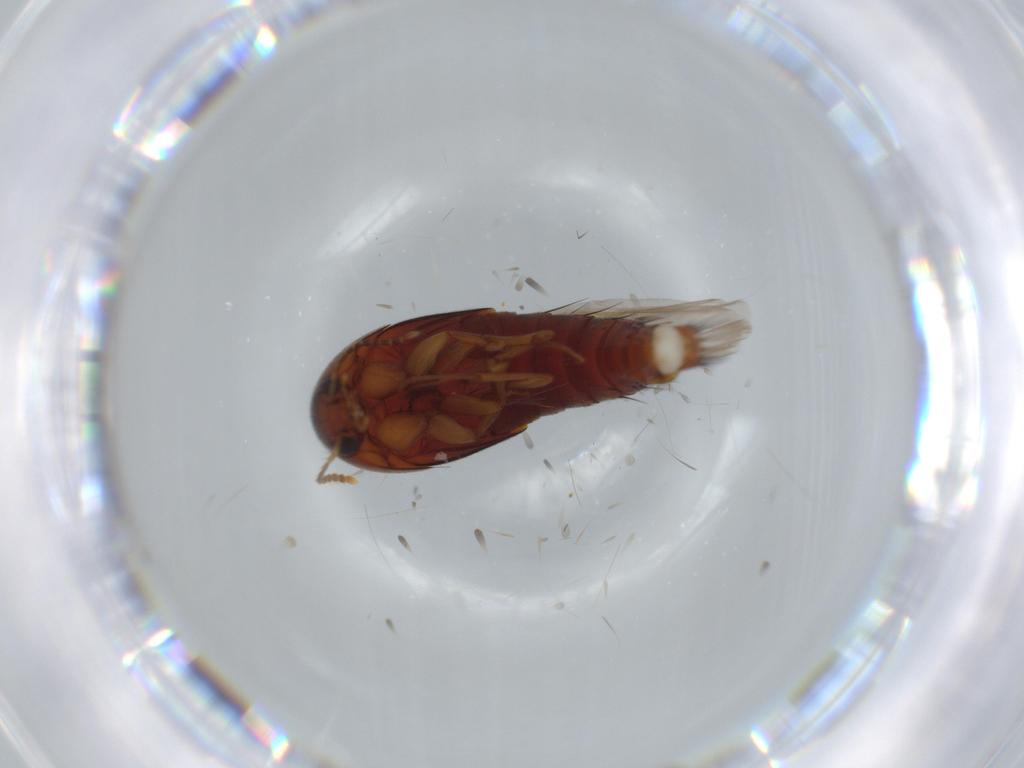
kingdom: Animalia
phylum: Arthropoda
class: Insecta
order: Coleoptera
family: Staphylinidae
